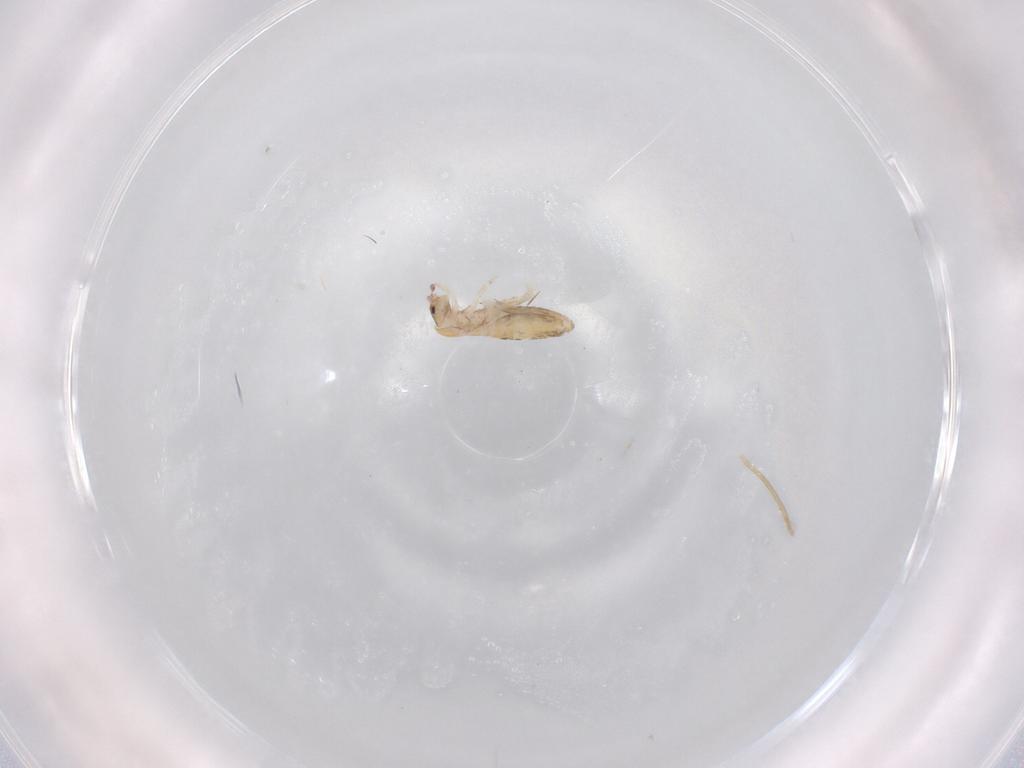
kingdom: Animalia
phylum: Arthropoda
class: Collembola
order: Entomobryomorpha
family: Entomobryidae
